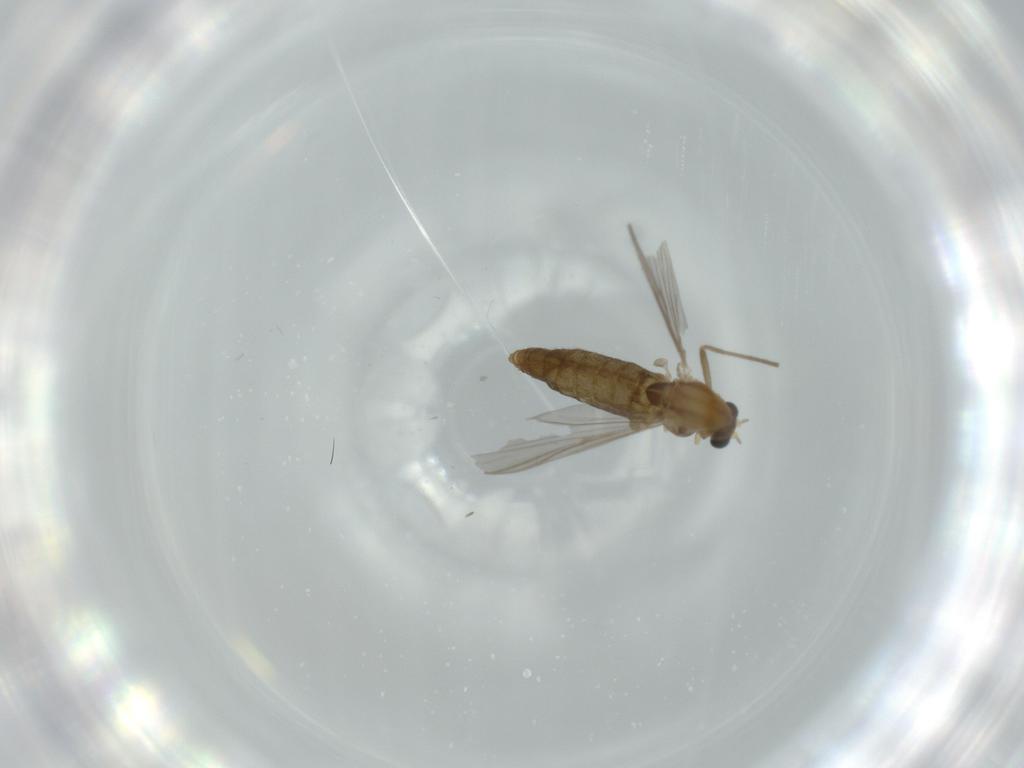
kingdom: Animalia
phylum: Arthropoda
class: Insecta
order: Diptera
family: Chironomidae
